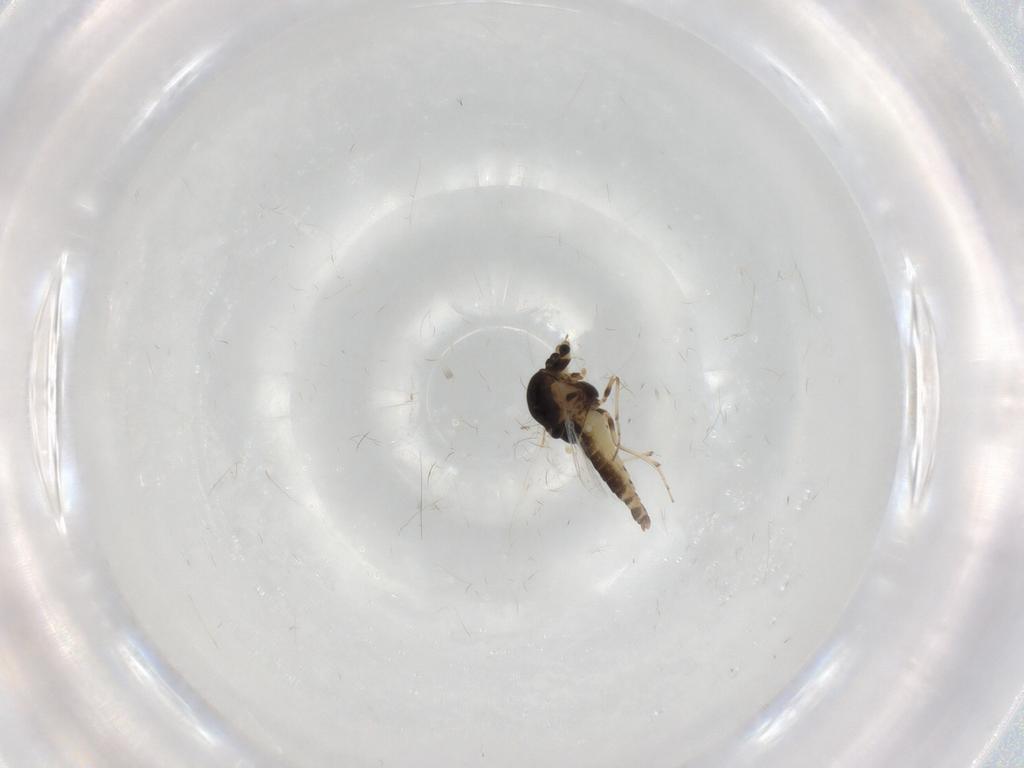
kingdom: Animalia
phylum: Arthropoda
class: Insecta
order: Diptera
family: Chironomidae
